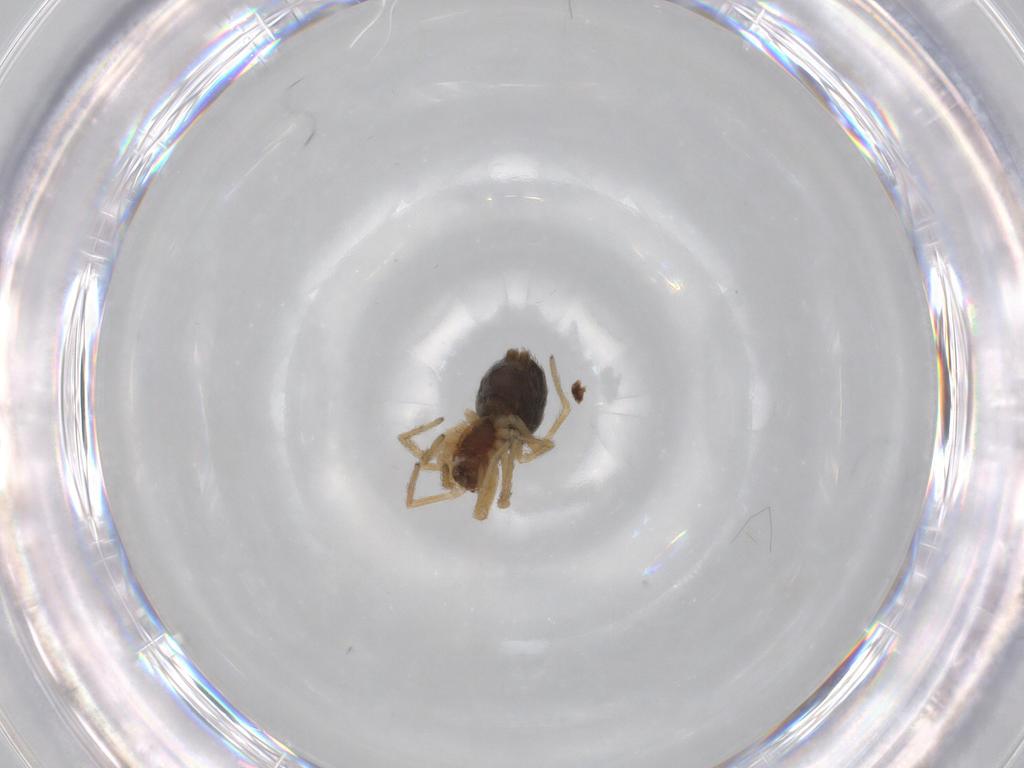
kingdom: Animalia
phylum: Arthropoda
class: Arachnida
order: Araneae
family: Dictynidae
